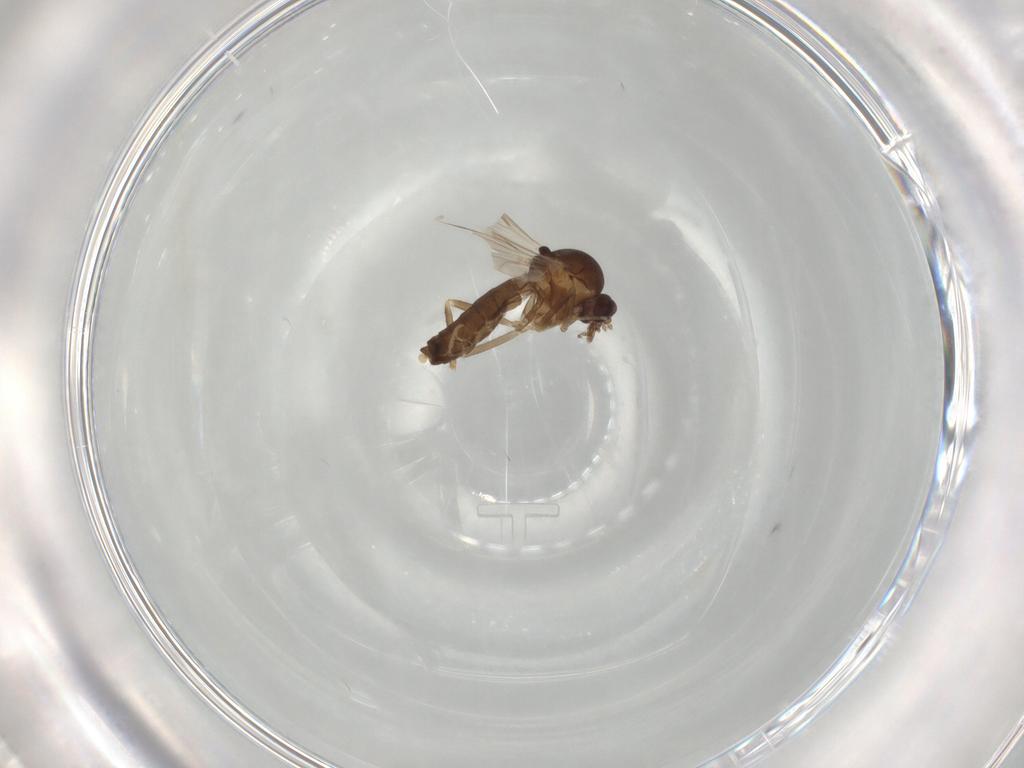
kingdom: Animalia
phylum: Arthropoda
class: Insecta
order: Diptera
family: Ceratopogonidae
